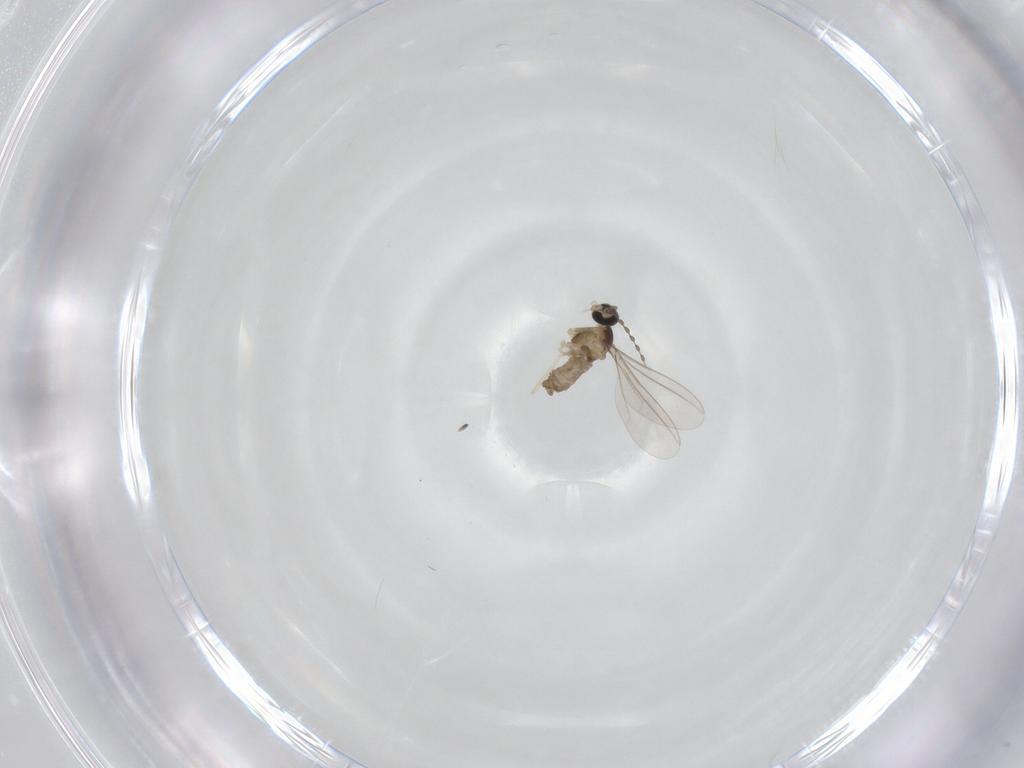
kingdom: Animalia
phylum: Arthropoda
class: Insecta
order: Diptera
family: Cecidomyiidae
